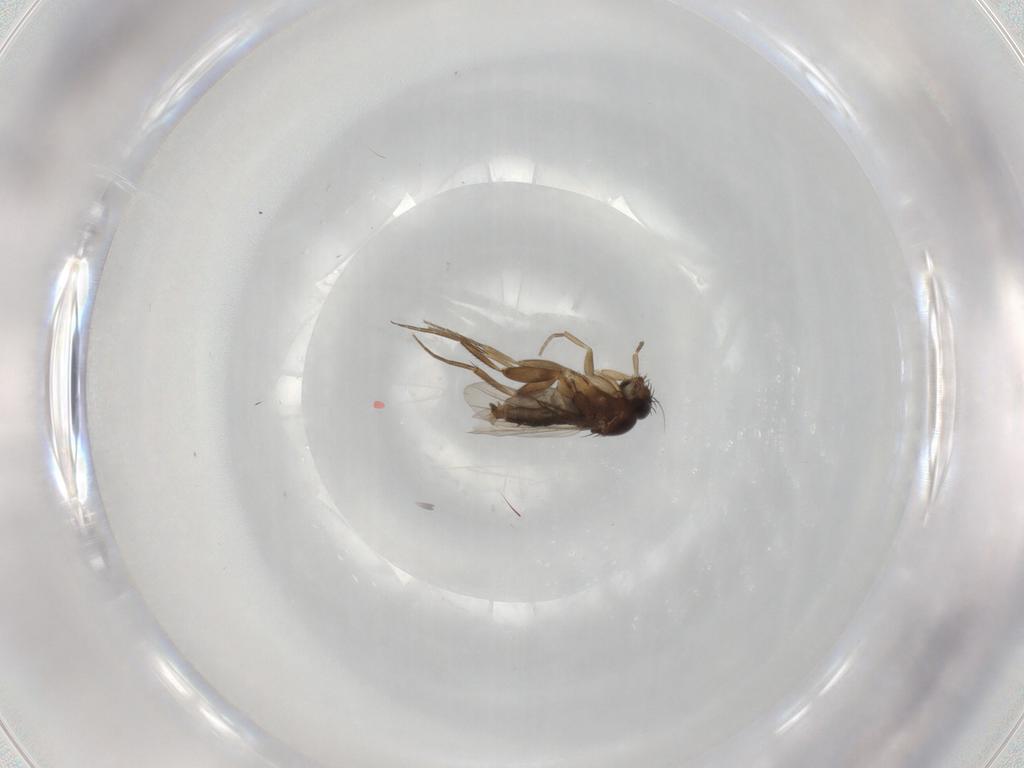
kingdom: Animalia
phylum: Arthropoda
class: Insecta
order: Diptera
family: Phoridae
